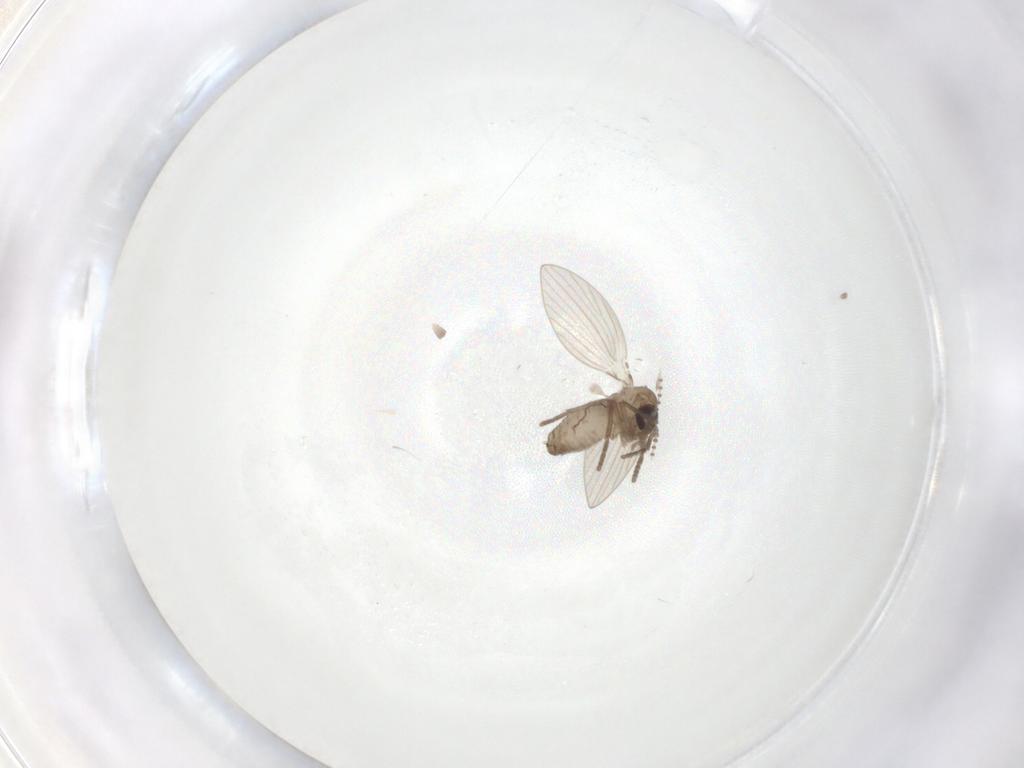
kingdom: Animalia
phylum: Arthropoda
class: Insecta
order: Diptera
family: Psychodidae
